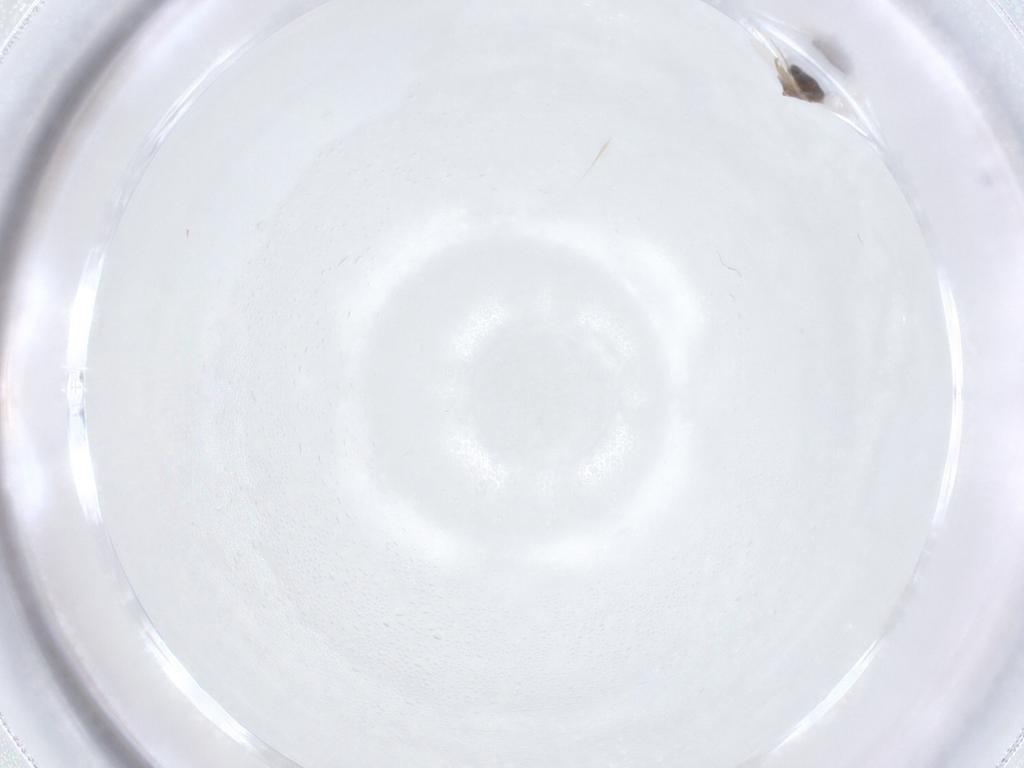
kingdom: Animalia
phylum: Arthropoda
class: Insecta
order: Diptera
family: Phoridae
